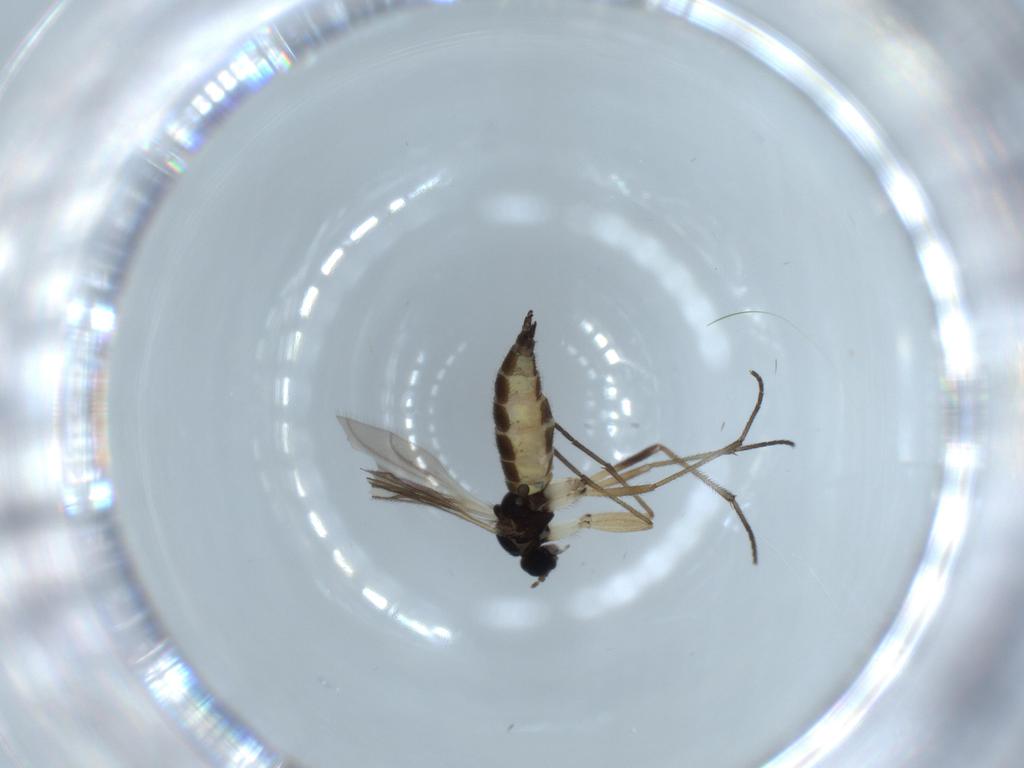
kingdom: Animalia
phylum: Arthropoda
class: Insecta
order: Diptera
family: Sciaridae
